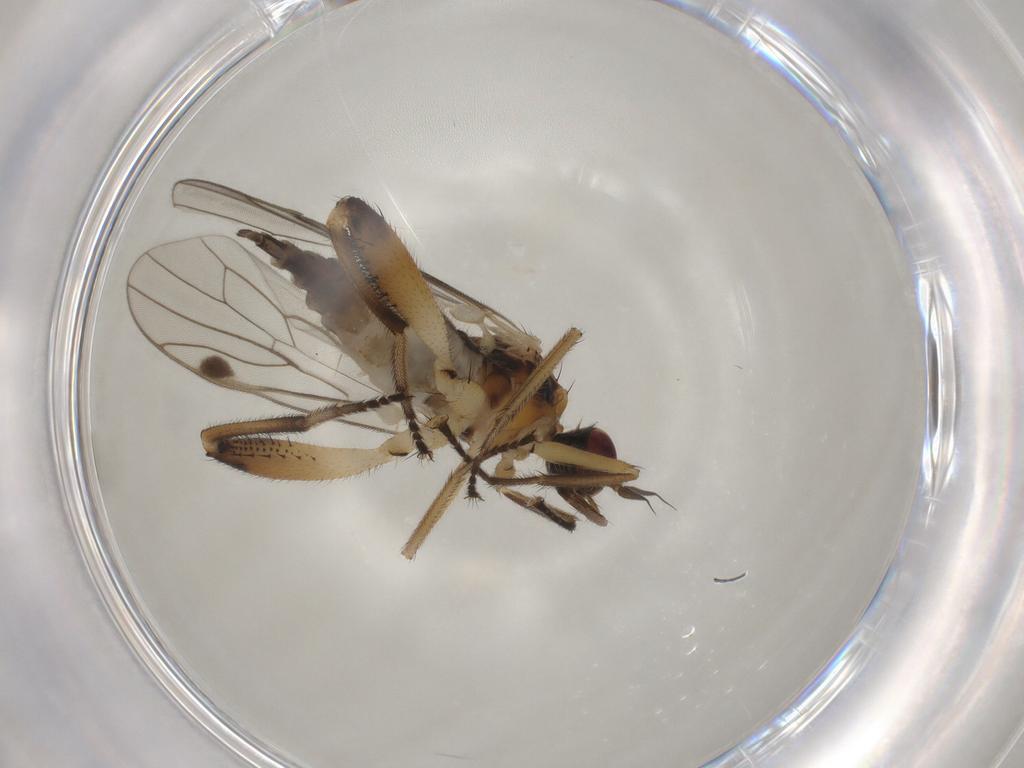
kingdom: Animalia
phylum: Arthropoda
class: Insecta
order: Diptera
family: Hybotidae
